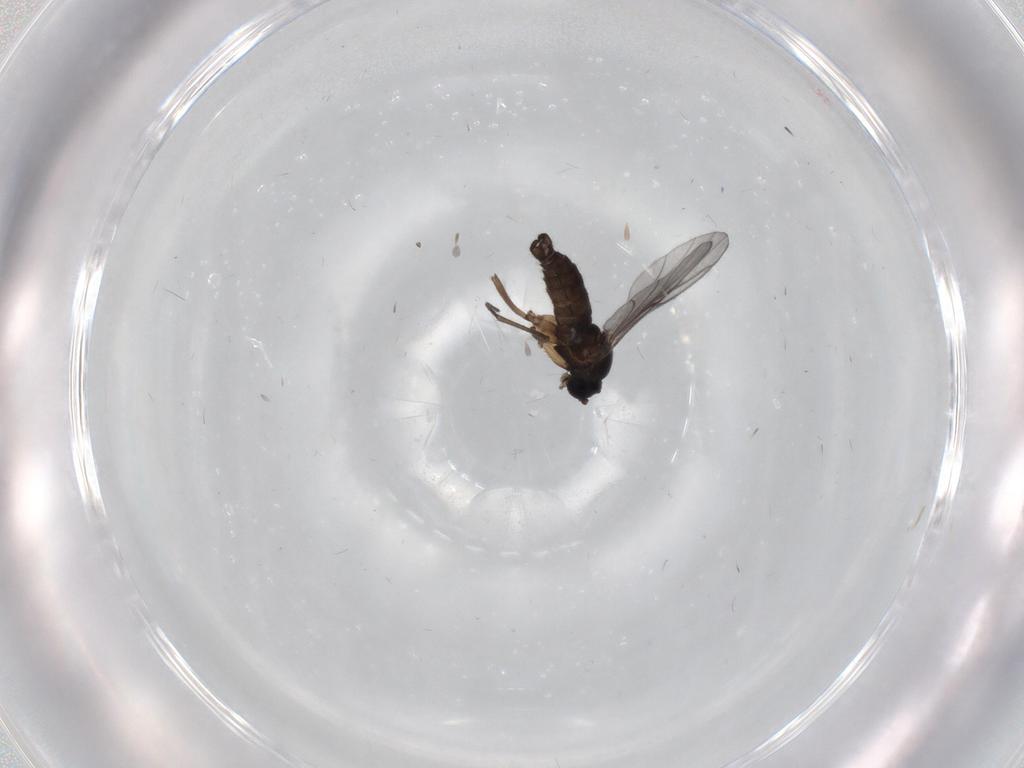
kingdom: Animalia
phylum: Arthropoda
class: Insecta
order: Diptera
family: Sciaridae
